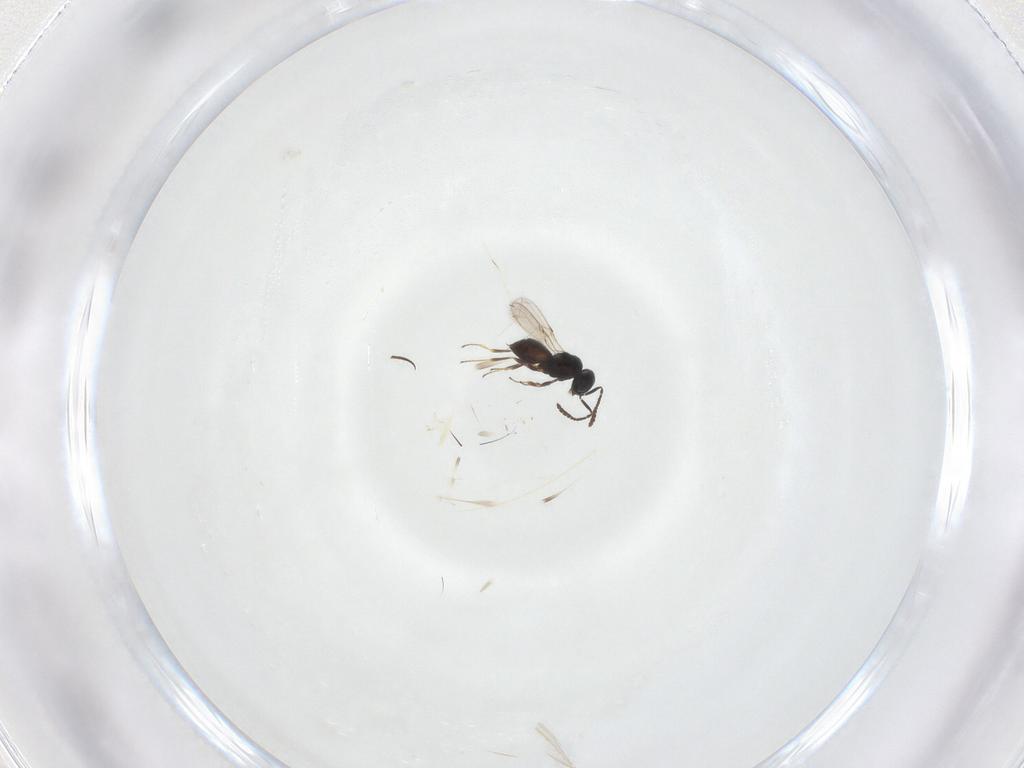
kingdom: Animalia
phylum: Arthropoda
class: Insecta
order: Hymenoptera
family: Scelionidae
